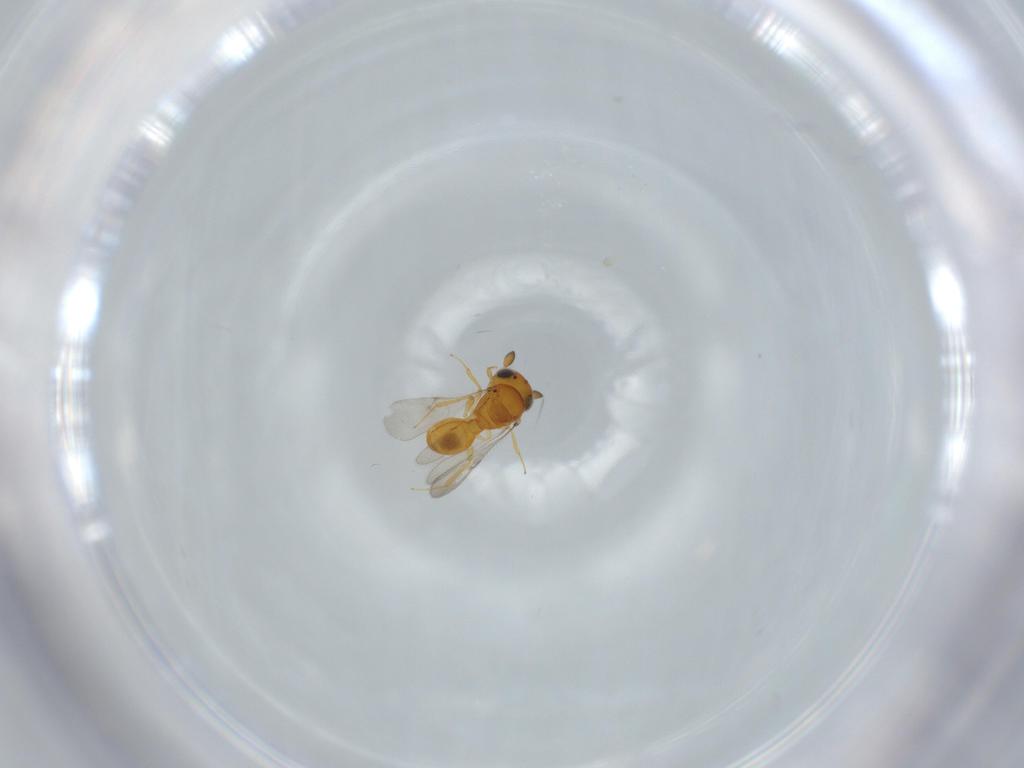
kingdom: Animalia
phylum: Arthropoda
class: Insecta
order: Hymenoptera
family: Scelionidae
